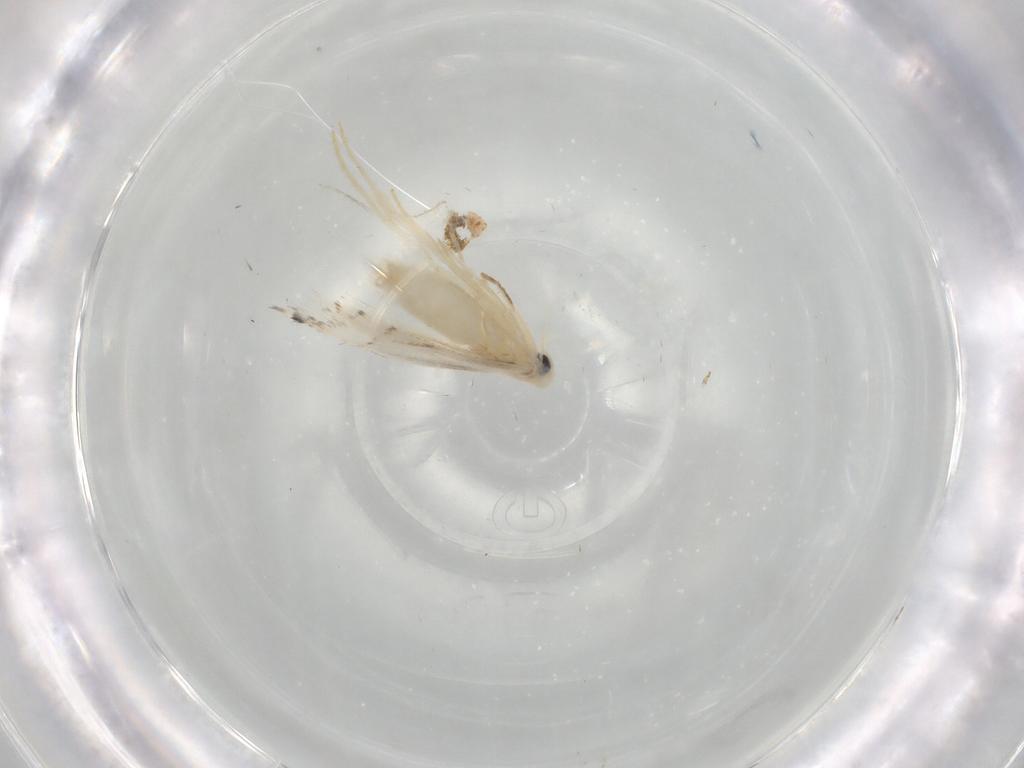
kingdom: Animalia
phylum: Arthropoda
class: Insecta
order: Lepidoptera
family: Gracillariidae
